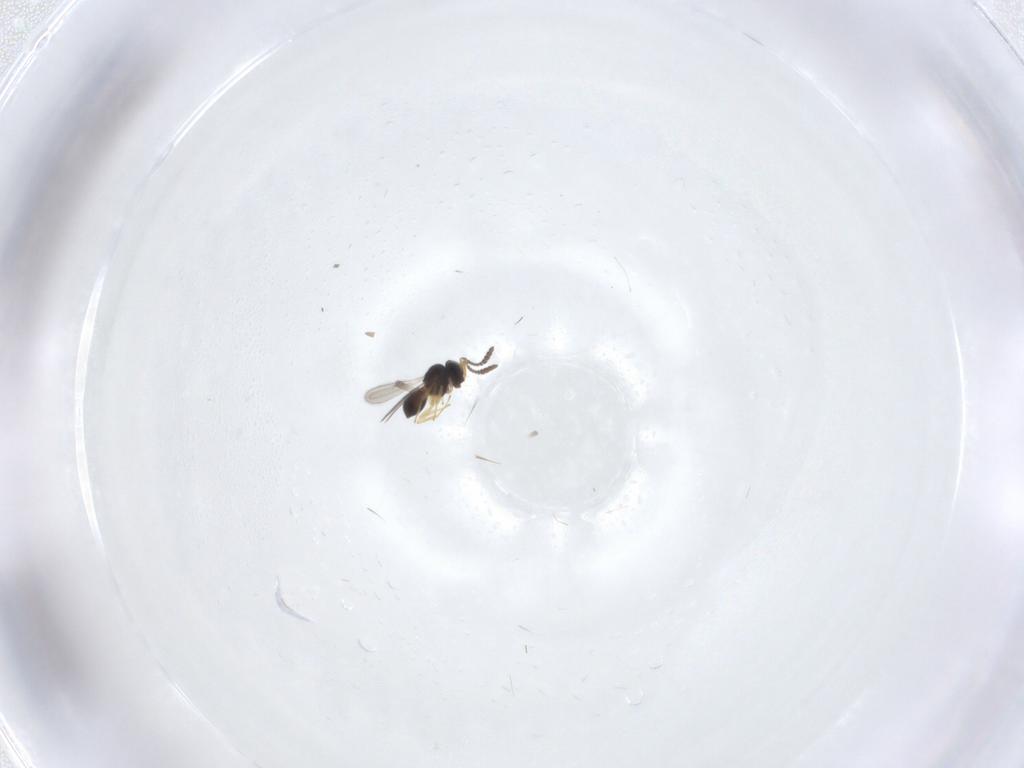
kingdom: Animalia
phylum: Arthropoda
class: Insecta
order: Hymenoptera
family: Scelionidae
